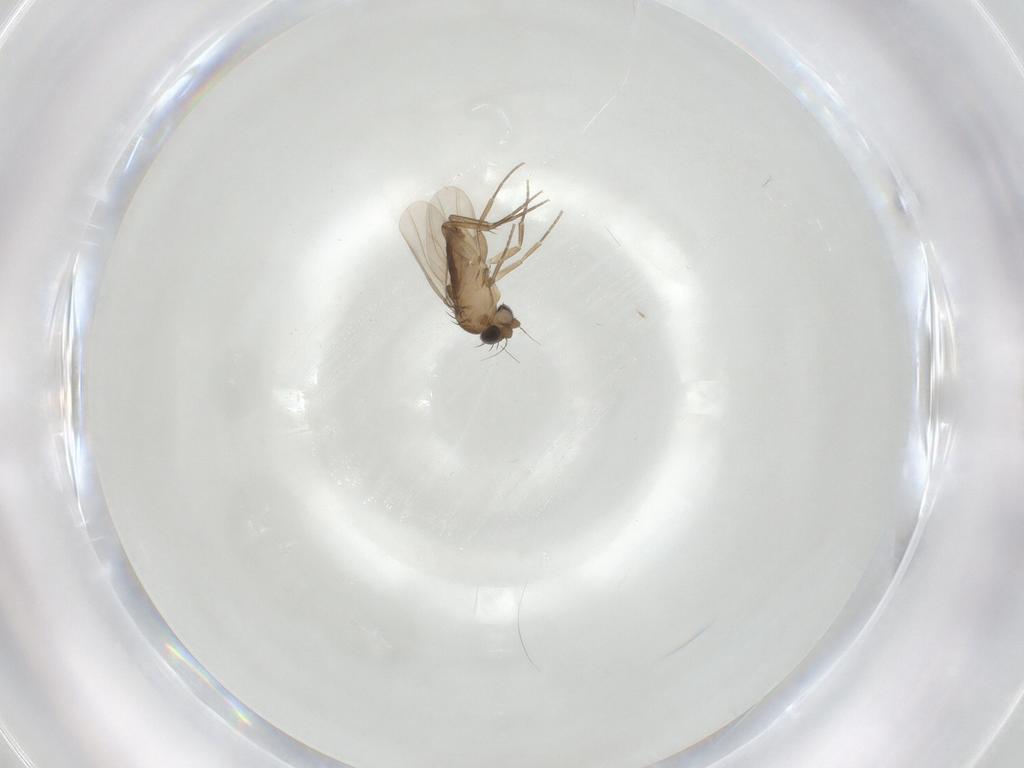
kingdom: Animalia
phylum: Arthropoda
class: Insecta
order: Diptera
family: Phoridae
